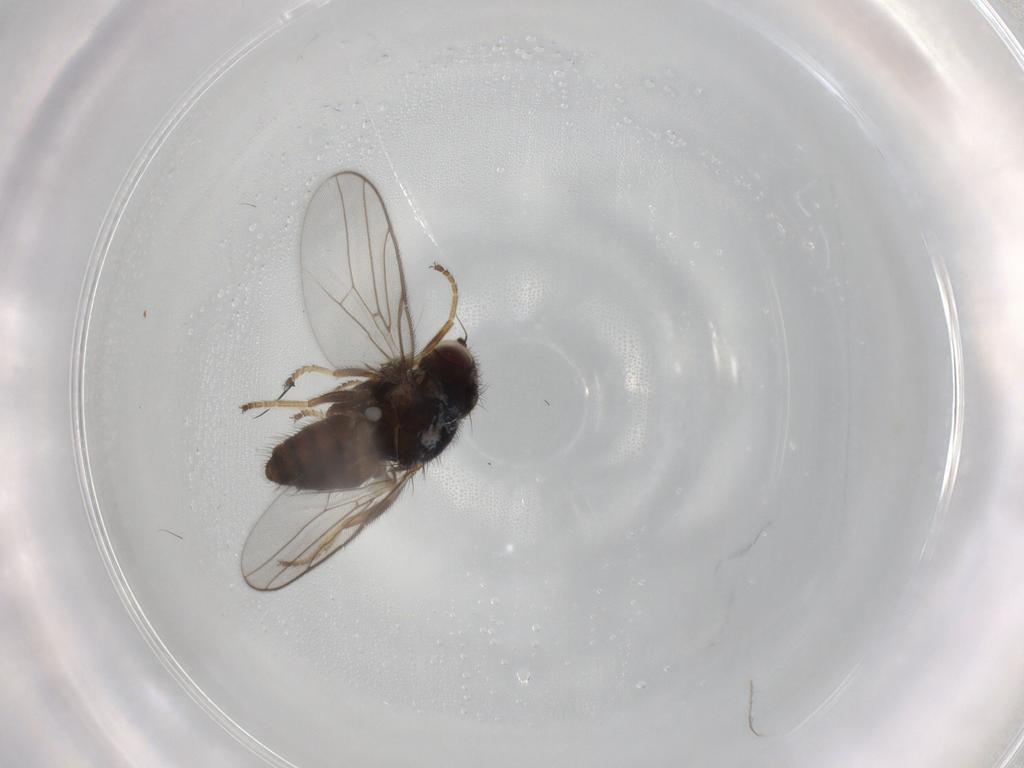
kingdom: Animalia
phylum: Arthropoda
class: Insecta
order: Diptera
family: Chloropidae
